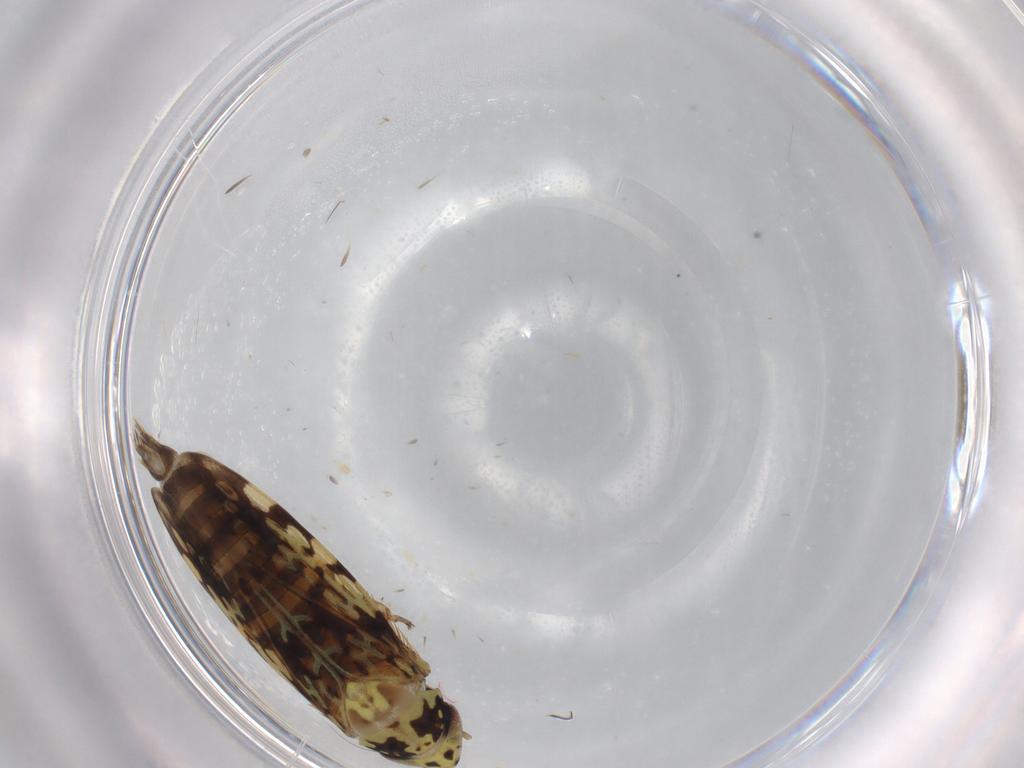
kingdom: Animalia
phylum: Arthropoda
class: Insecta
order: Hemiptera
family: Cicadellidae
